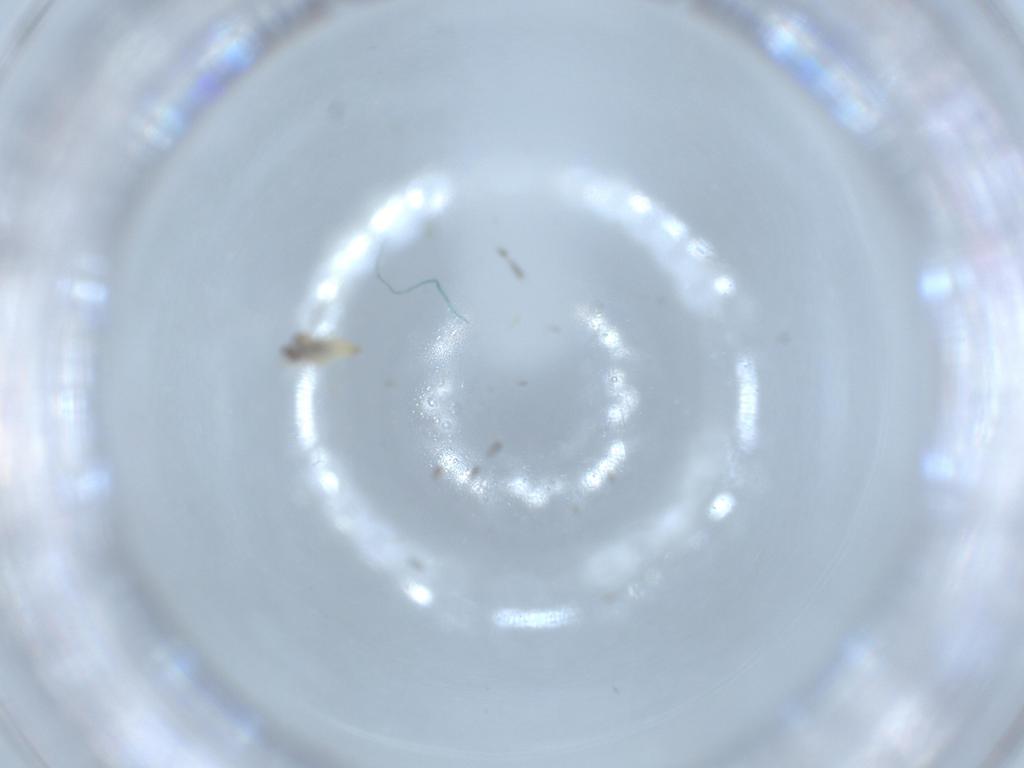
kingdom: Animalia
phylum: Arthropoda
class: Insecta
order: Diptera
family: Cecidomyiidae
